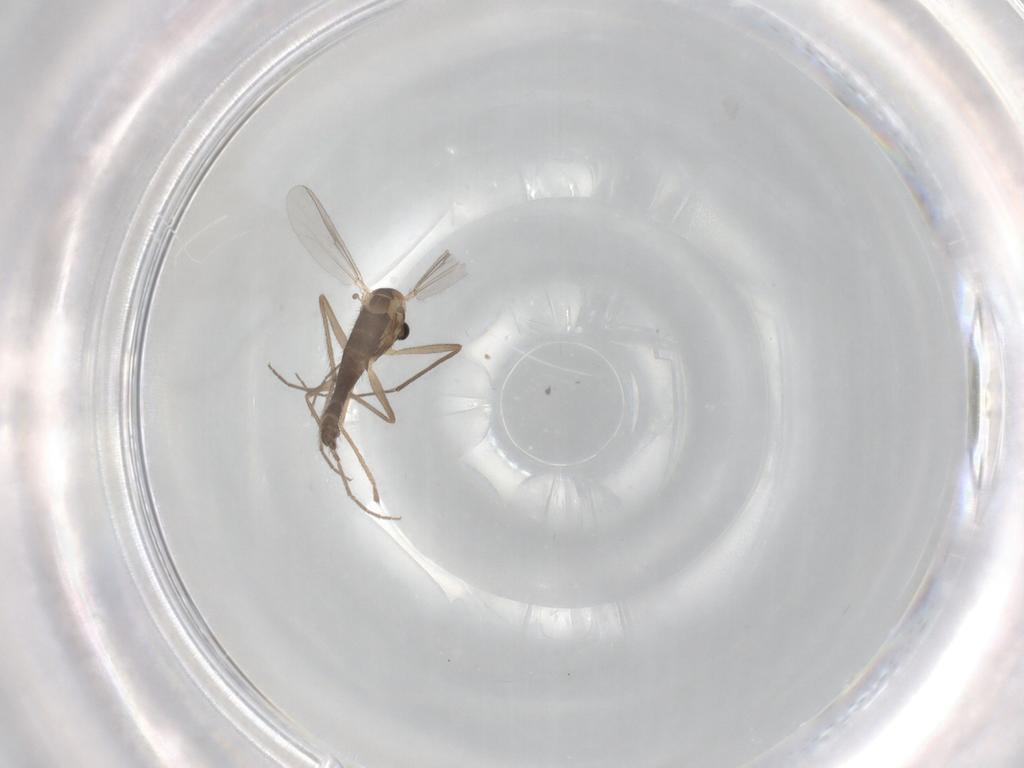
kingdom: Animalia
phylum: Arthropoda
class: Insecta
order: Diptera
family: Chironomidae
